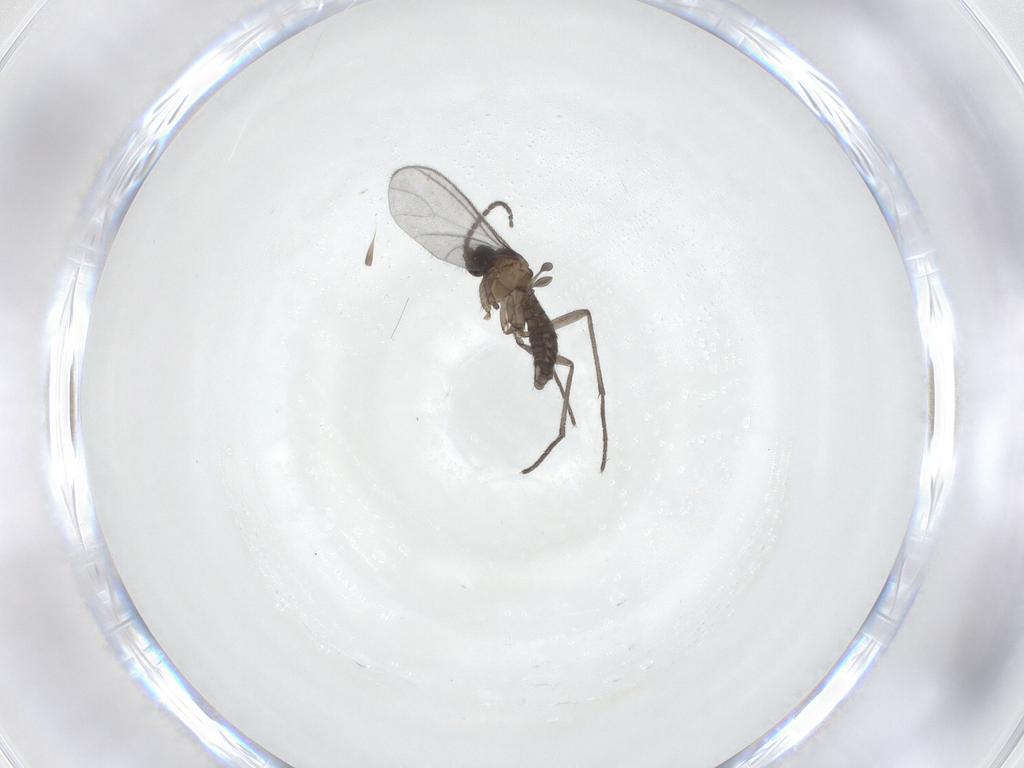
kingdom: Animalia
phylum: Arthropoda
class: Insecta
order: Diptera
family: Sciaridae
